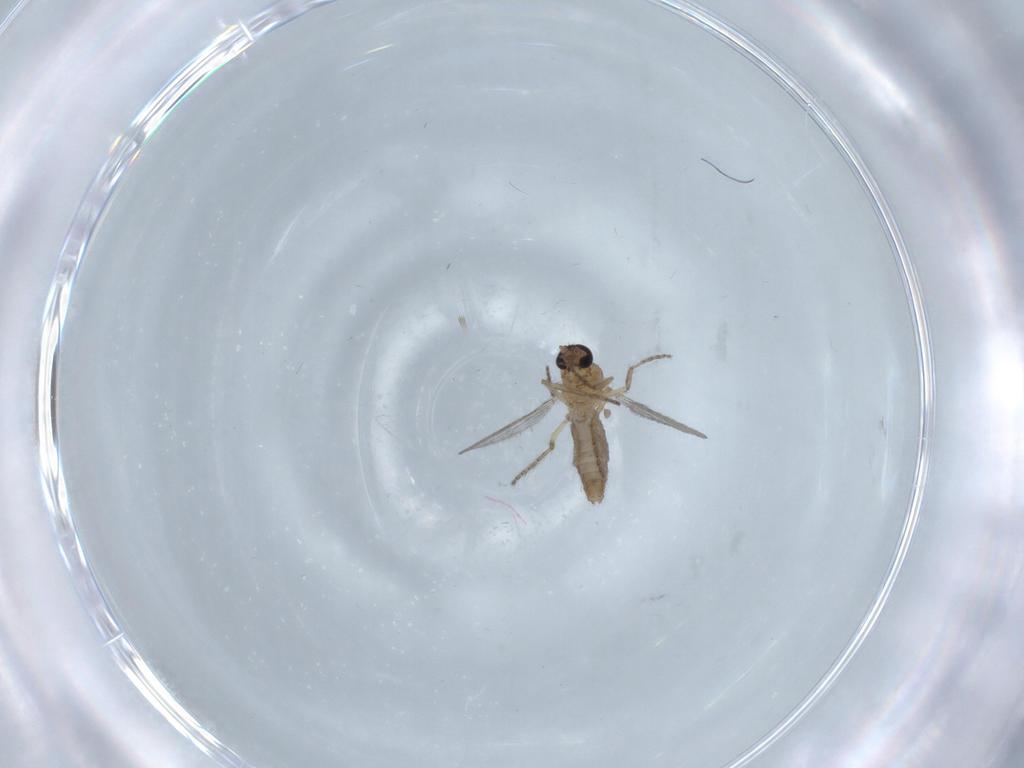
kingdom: Animalia
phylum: Arthropoda
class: Insecta
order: Diptera
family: Ceratopogonidae
